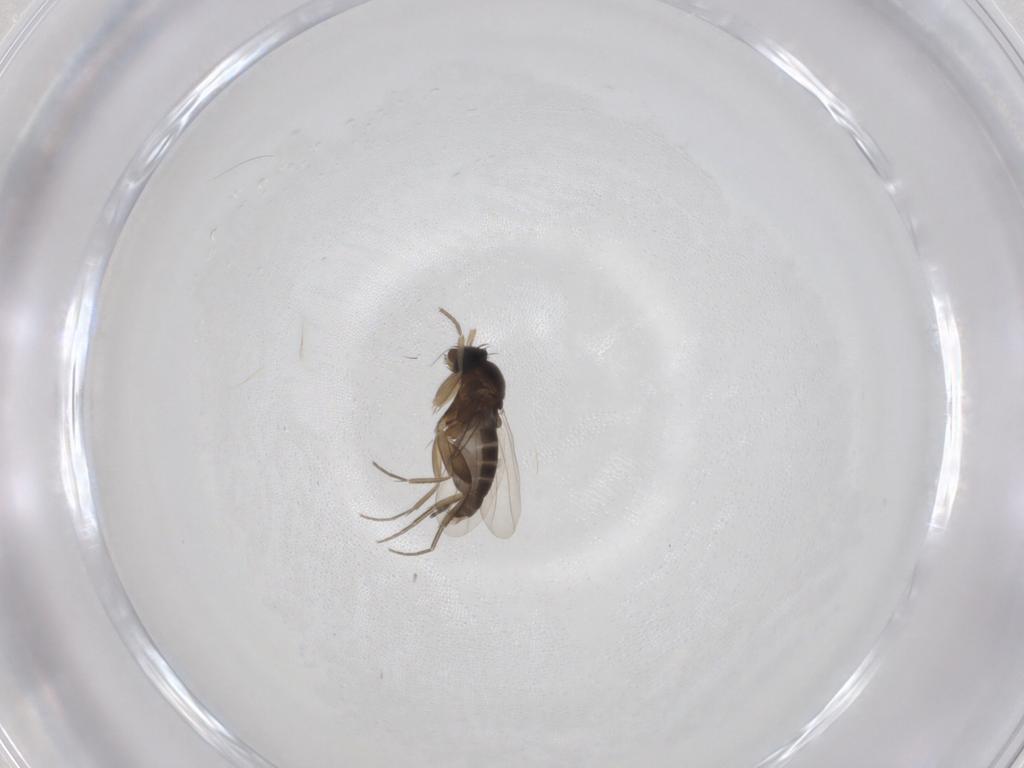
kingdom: Animalia
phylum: Arthropoda
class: Insecta
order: Diptera
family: Phoridae
